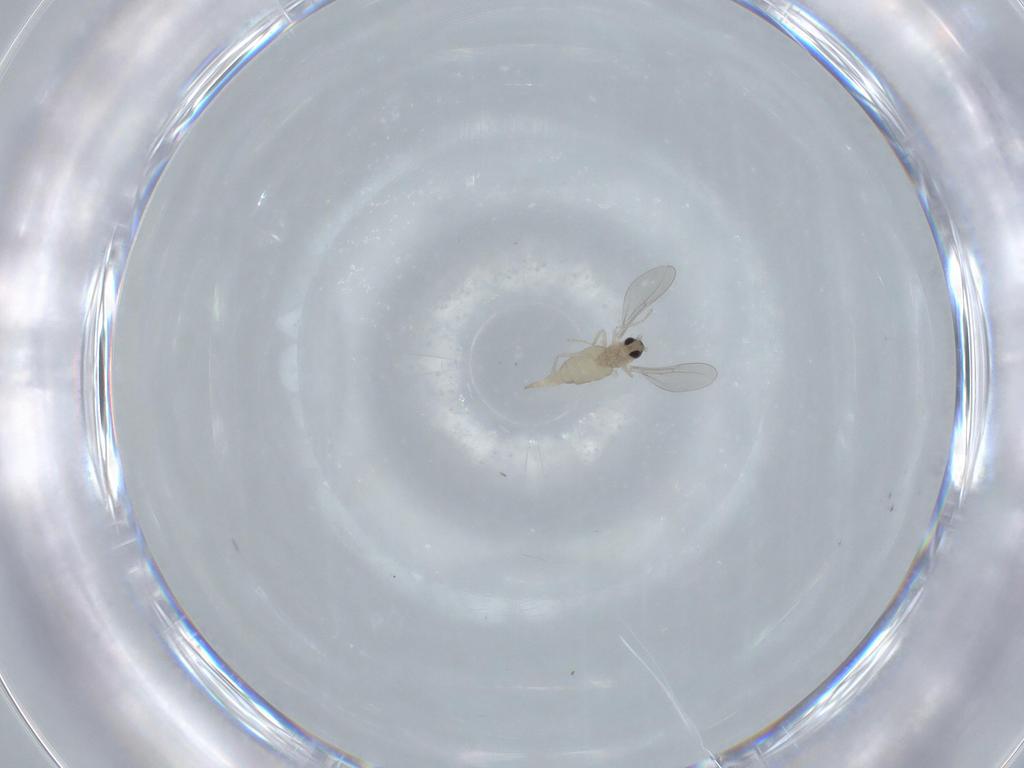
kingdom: Animalia
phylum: Arthropoda
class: Insecta
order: Diptera
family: Cecidomyiidae
